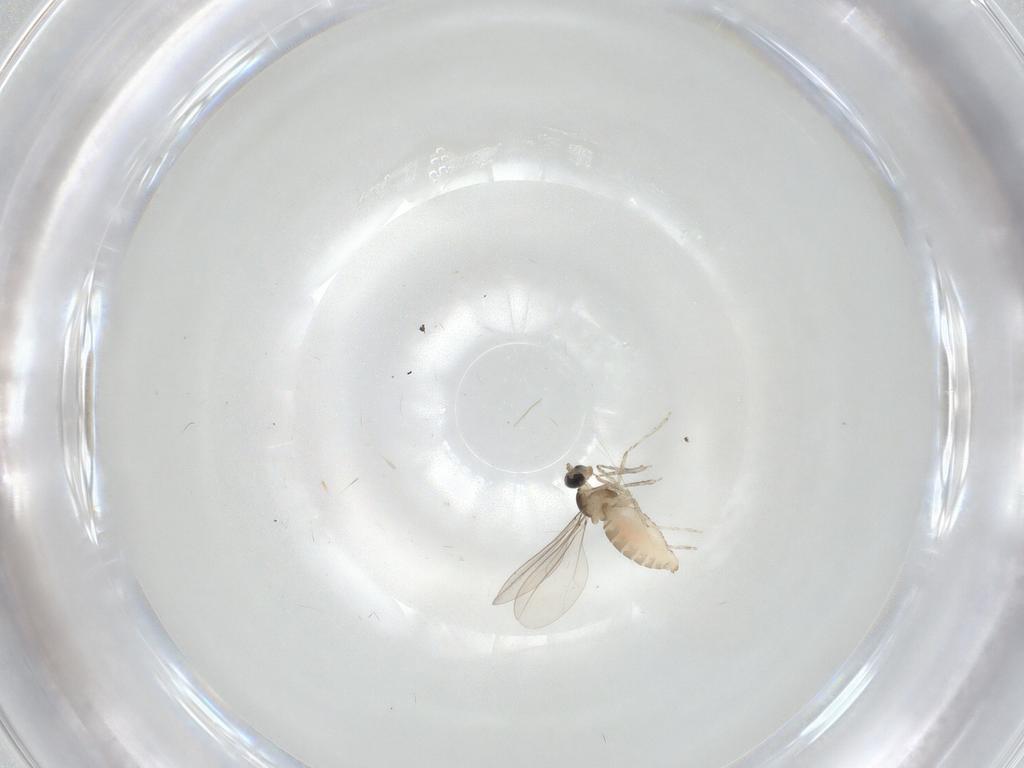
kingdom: Animalia
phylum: Arthropoda
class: Insecta
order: Diptera
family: Cecidomyiidae
